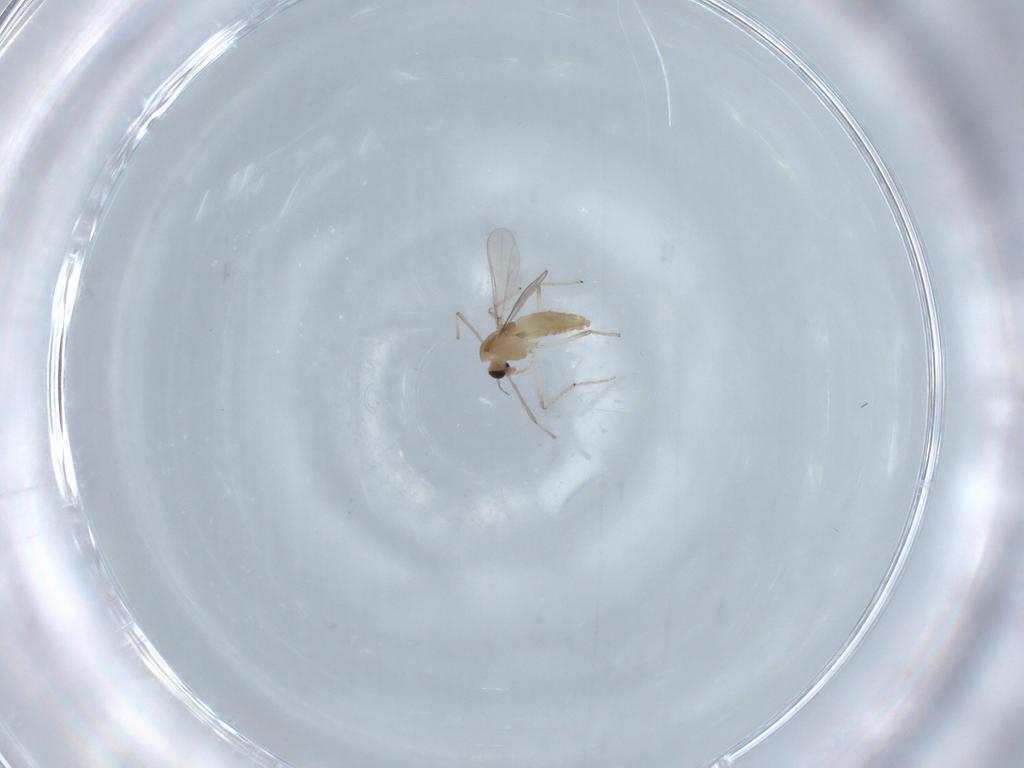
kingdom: Animalia
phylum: Arthropoda
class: Insecta
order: Diptera
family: Chironomidae
